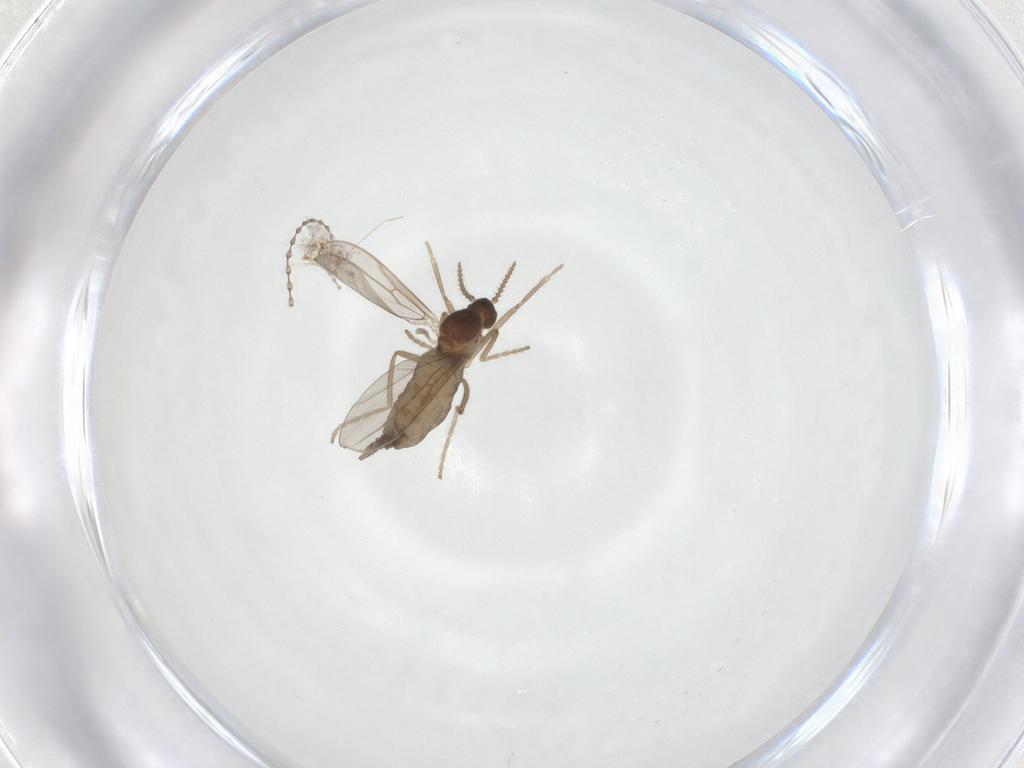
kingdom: Animalia
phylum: Arthropoda
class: Insecta
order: Diptera
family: Cecidomyiidae
